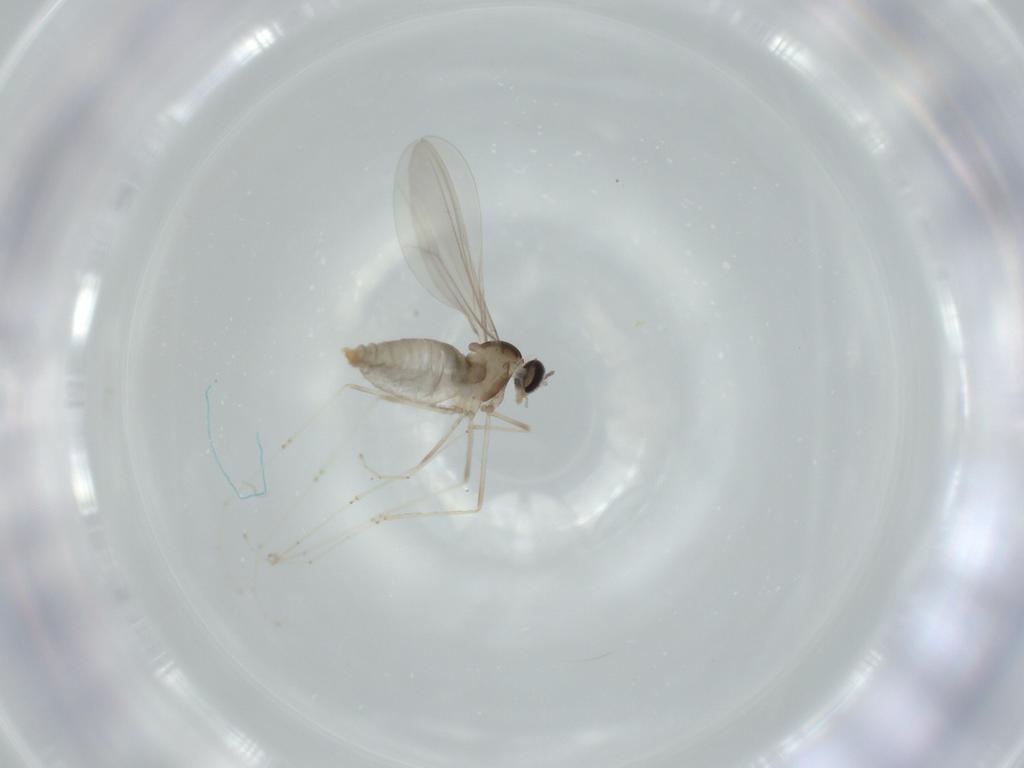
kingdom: Animalia
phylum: Arthropoda
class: Insecta
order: Diptera
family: Cecidomyiidae
